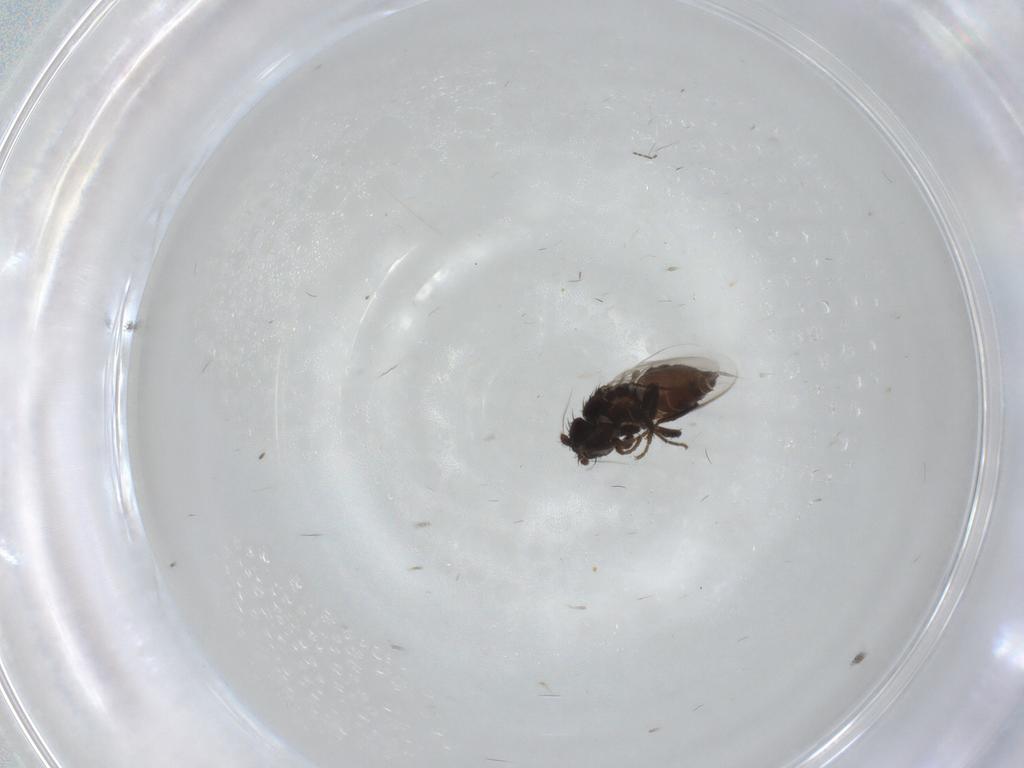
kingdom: Animalia
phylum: Arthropoda
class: Insecta
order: Diptera
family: Sphaeroceridae
